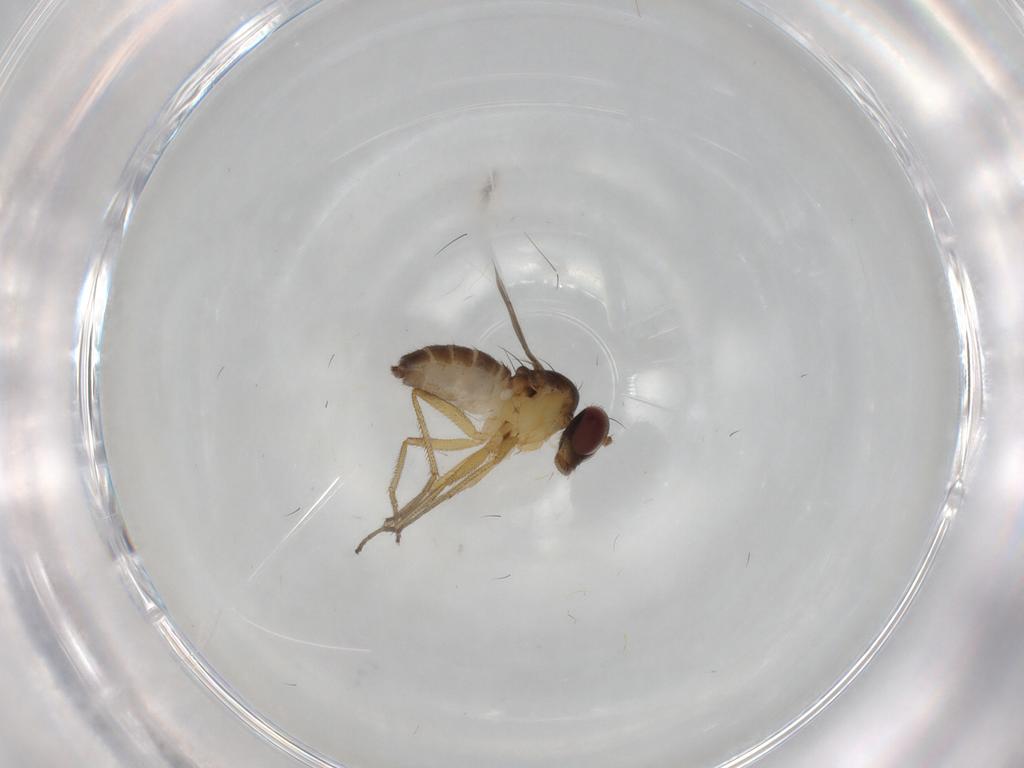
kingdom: Animalia
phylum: Arthropoda
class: Insecta
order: Diptera
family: Dolichopodidae
